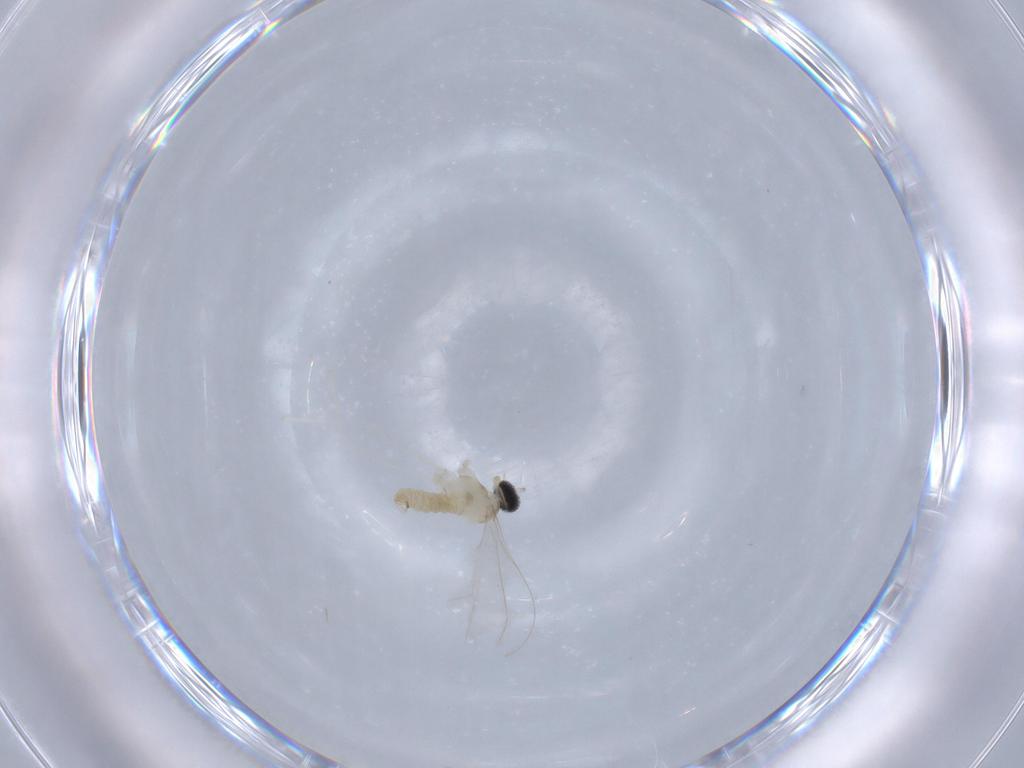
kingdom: Animalia
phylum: Arthropoda
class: Insecta
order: Diptera
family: Cecidomyiidae
